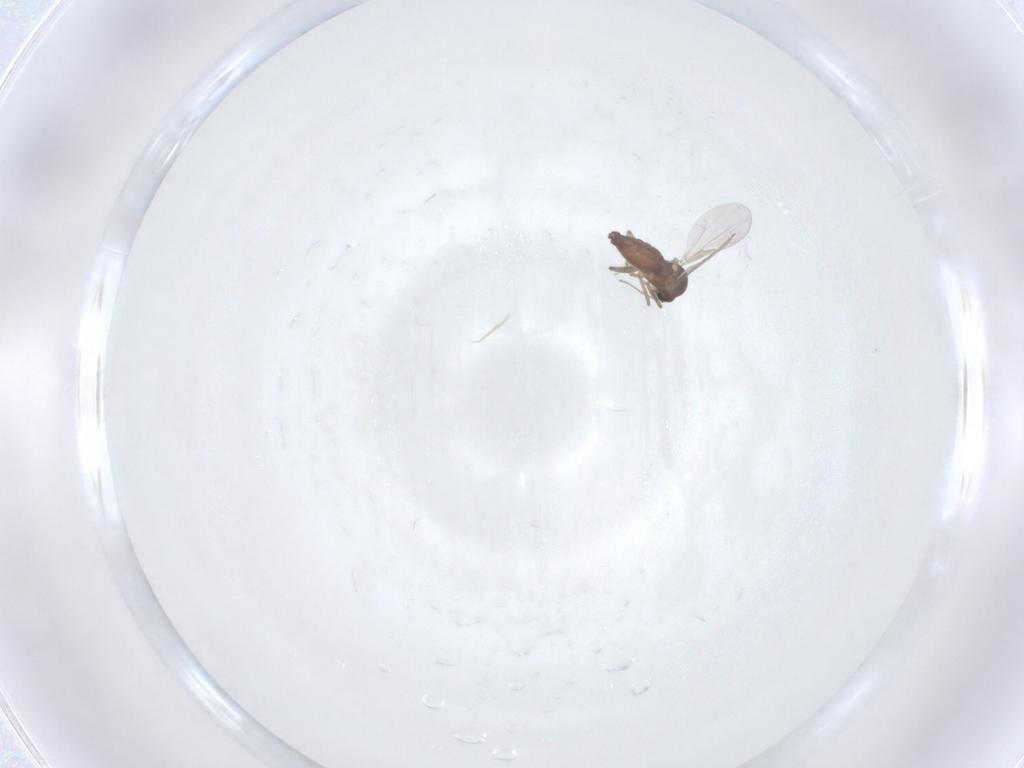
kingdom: Animalia
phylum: Arthropoda
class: Insecta
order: Diptera
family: Ceratopogonidae
